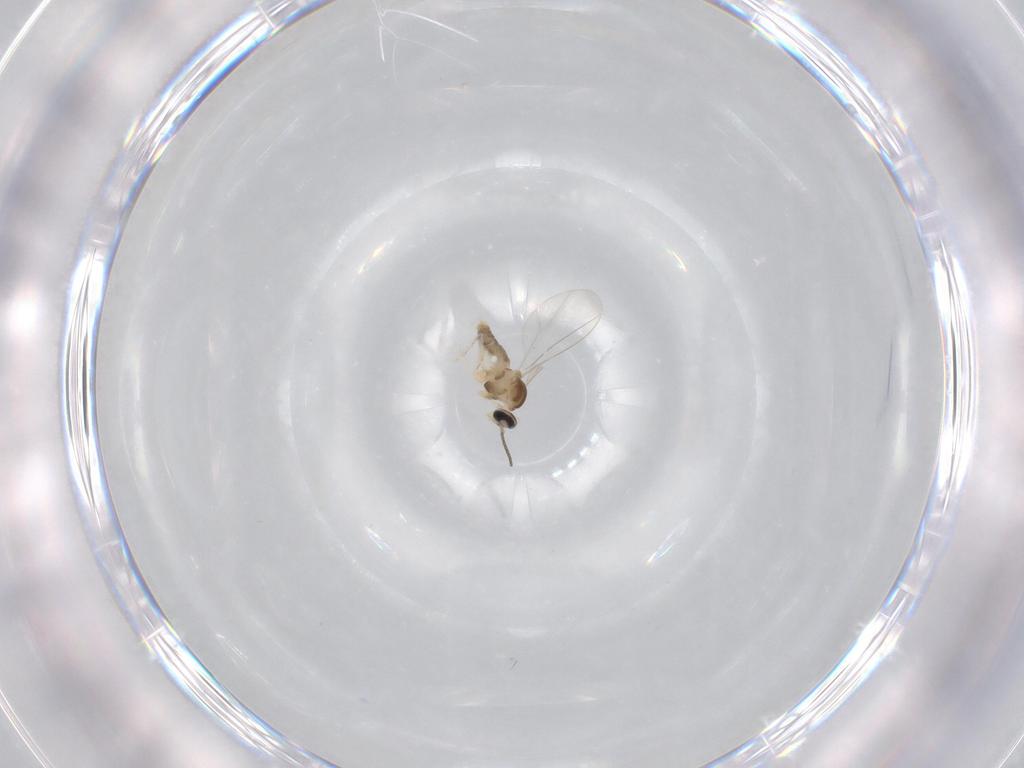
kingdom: Animalia
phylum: Arthropoda
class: Insecta
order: Diptera
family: Cecidomyiidae
